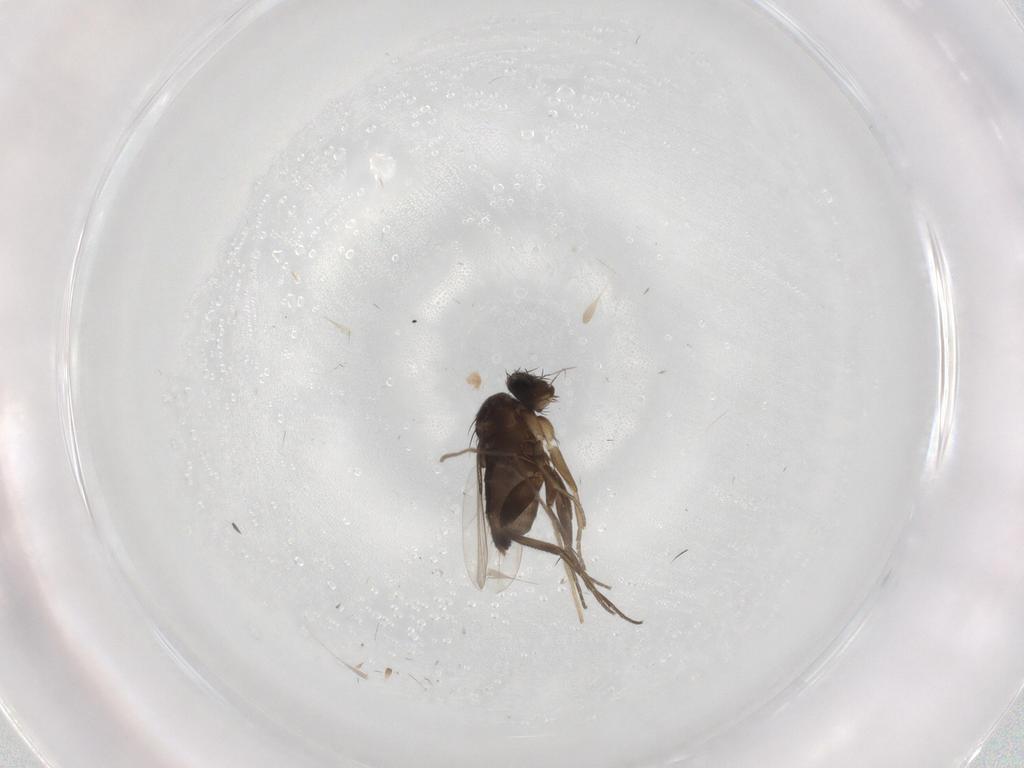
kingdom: Animalia
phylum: Arthropoda
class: Insecta
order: Diptera
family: Phoridae
